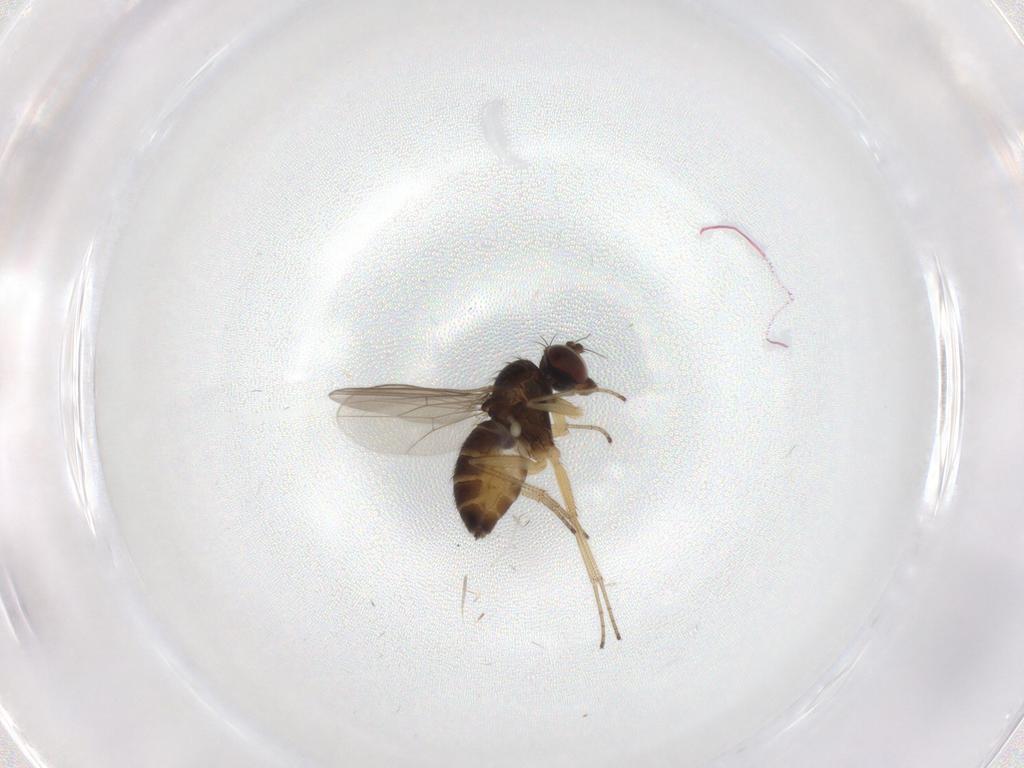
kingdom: Animalia
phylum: Arthropoda
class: Insecta
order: Diptera
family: Dolichopodidae
